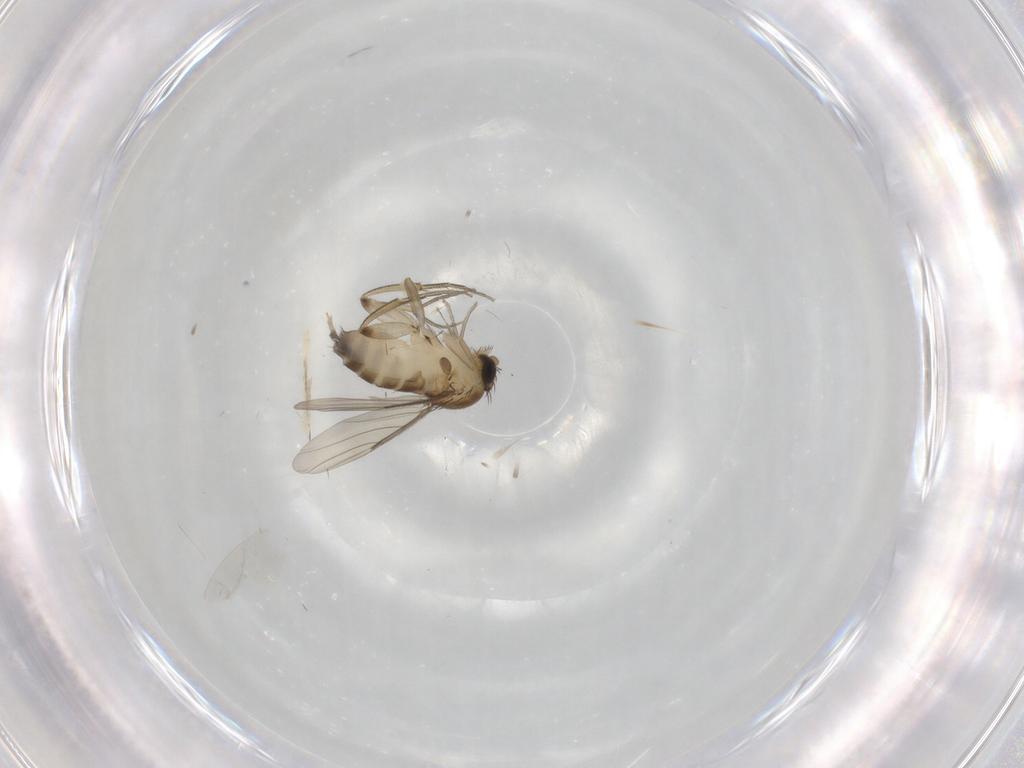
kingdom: Animalia
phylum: Arthropoda
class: Insecta
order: Diptera
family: Phoridae
